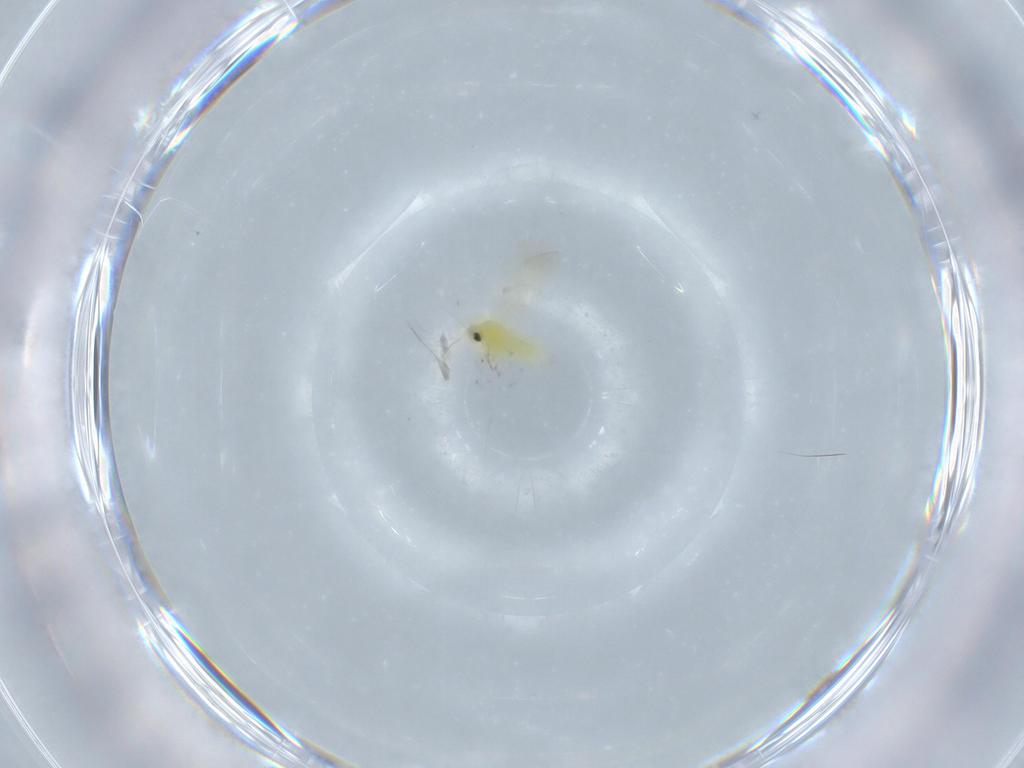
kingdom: Animalia
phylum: Arthropoda
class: Insecta
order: Hemiptera
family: Aleyrodidae
